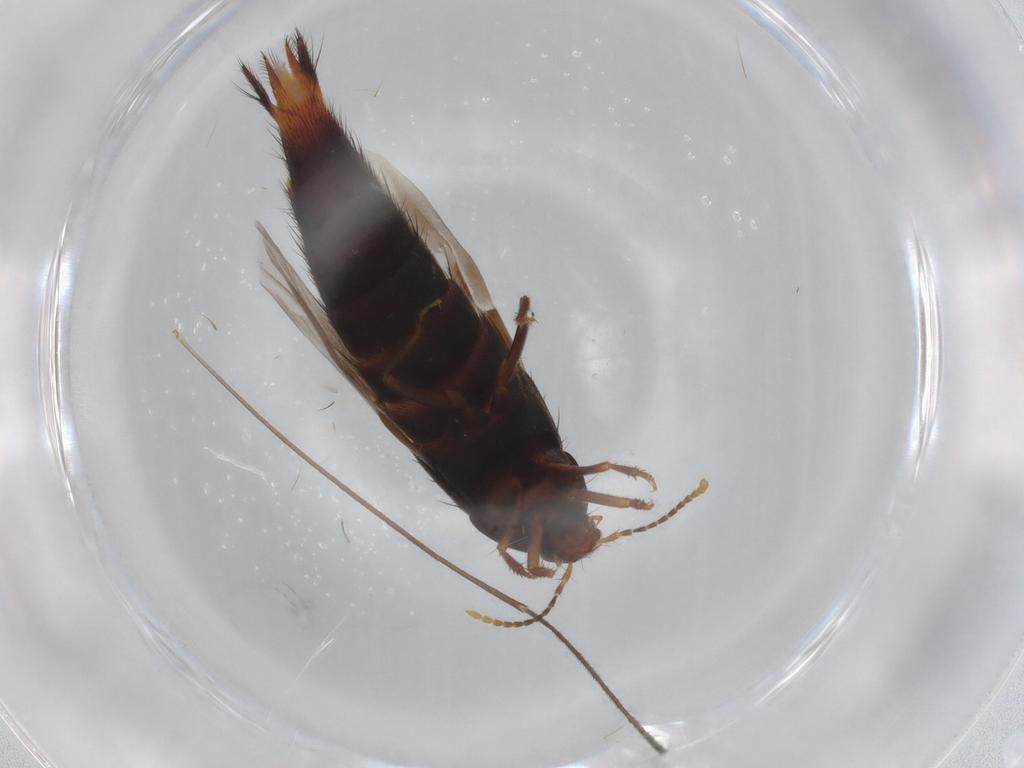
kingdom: Animalia
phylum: Arthropoda
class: Insecta
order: Coleoptera
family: Staphylinidae
